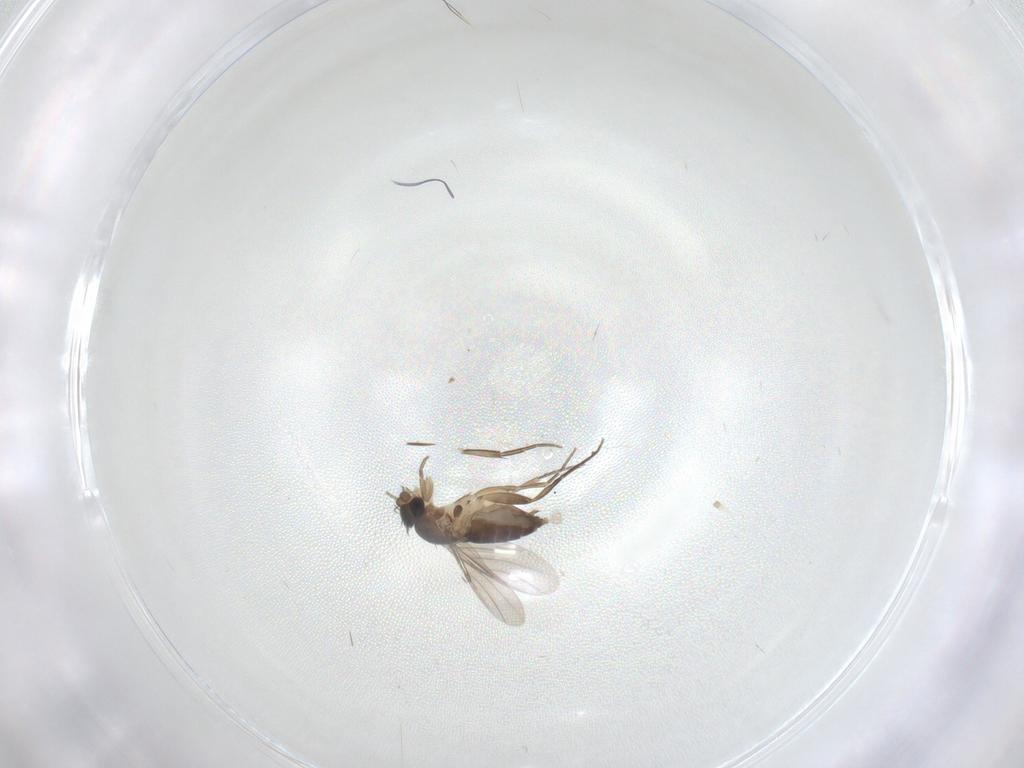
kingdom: Animalia
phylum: Arthropoda
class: Insecta
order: Diptera
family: Phoridae
